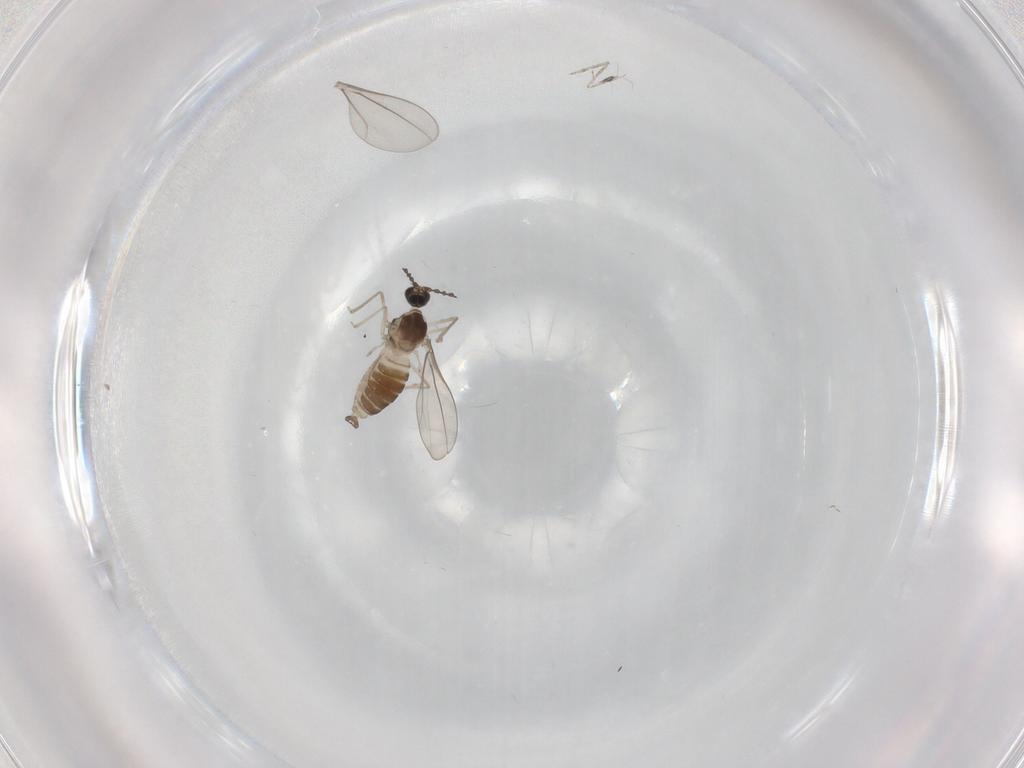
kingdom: Animalia
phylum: Arthropoda
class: Insecta
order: Diptera
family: Cecidomyiidae
